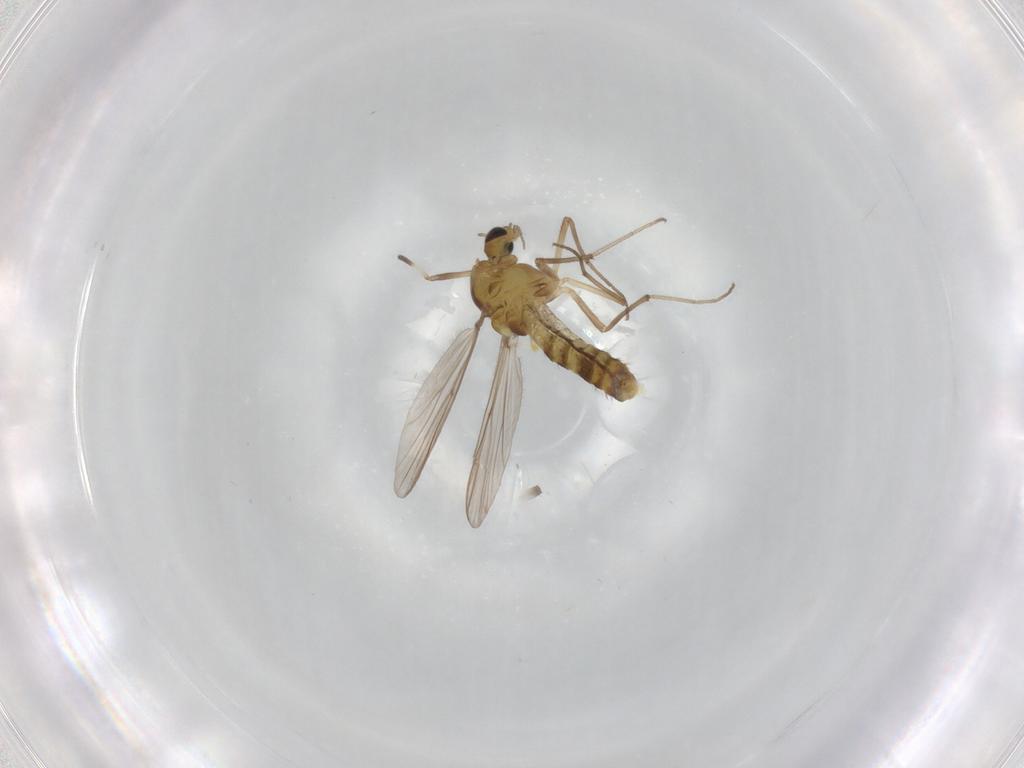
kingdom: Animalia
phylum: Arthropoda
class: Insecta
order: Diptera
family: Chironomidae
